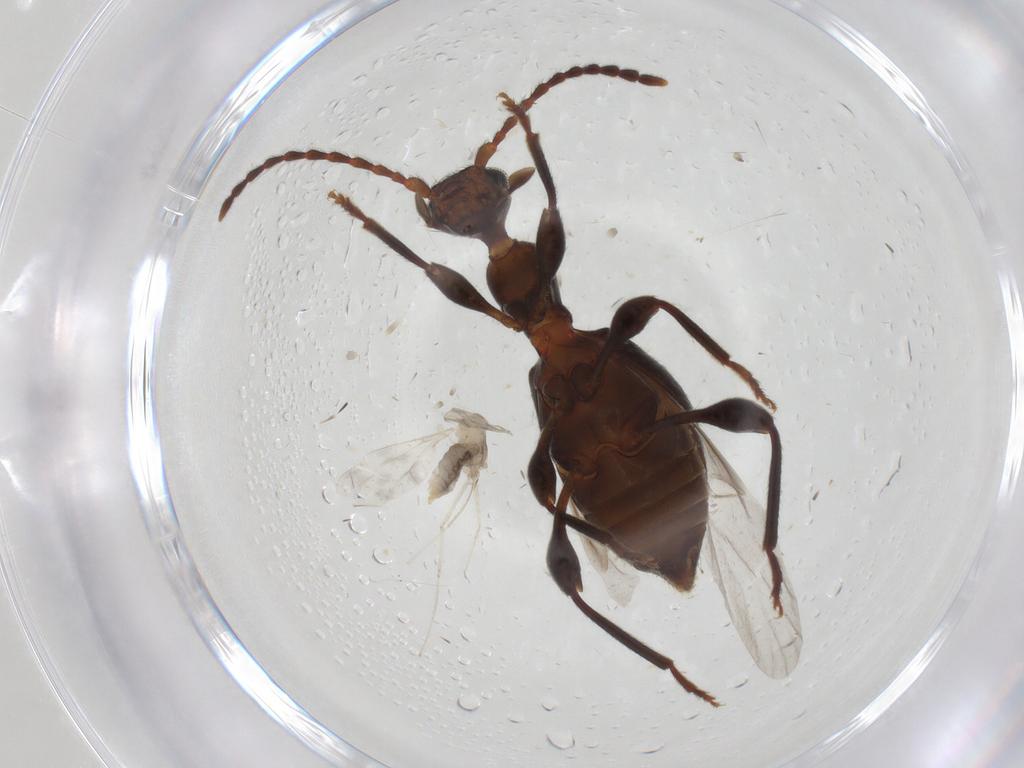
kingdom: Animalia
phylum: Arthropoda
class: Insecta
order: Coleoptera
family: Anthicidae
